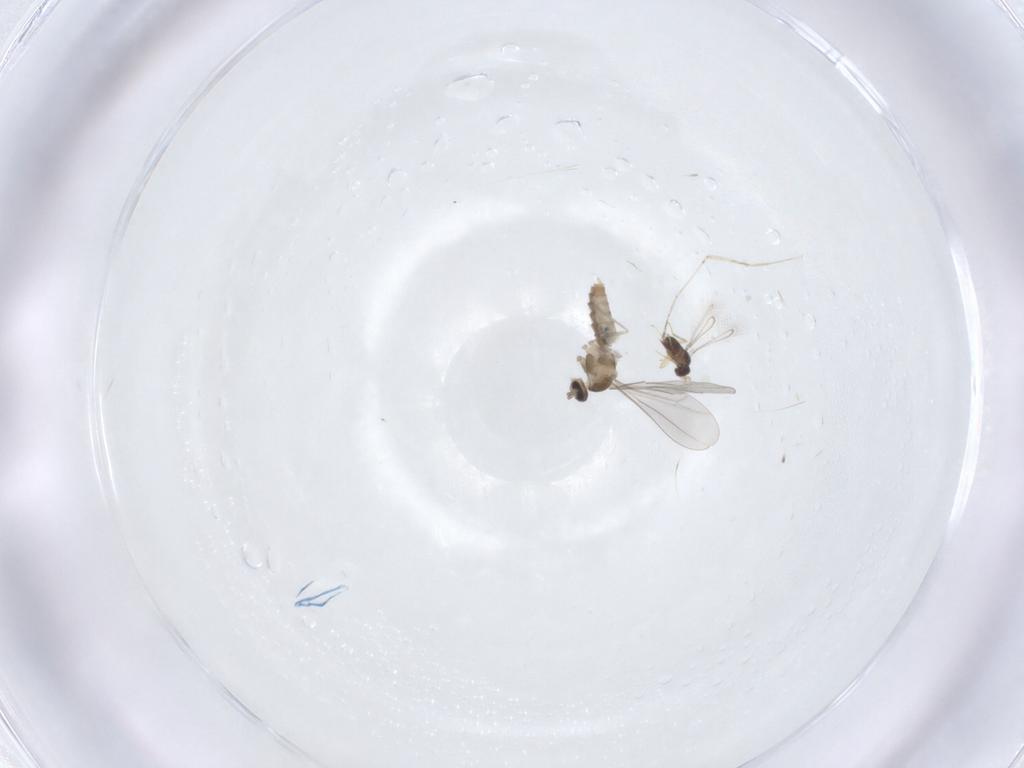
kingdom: Animalia
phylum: Arthropoda
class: Insecta
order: Diptera
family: Cecidomyiidae
